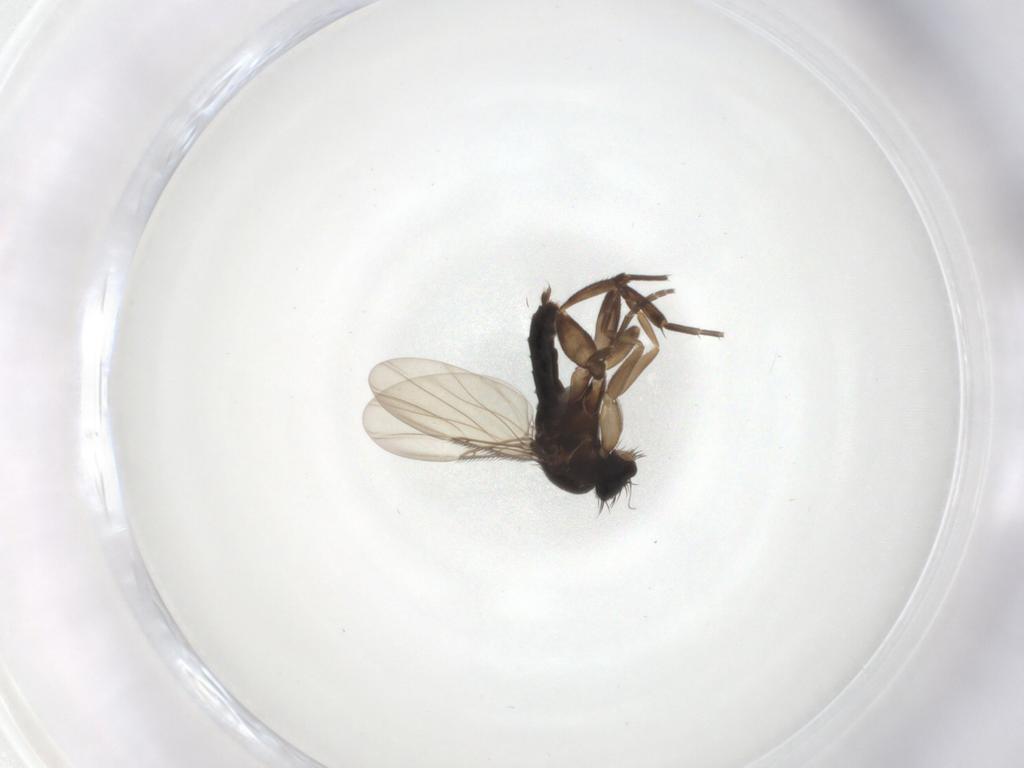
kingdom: Animalia
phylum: Arthropoda
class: Insecta
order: Diptera
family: Phoridae
